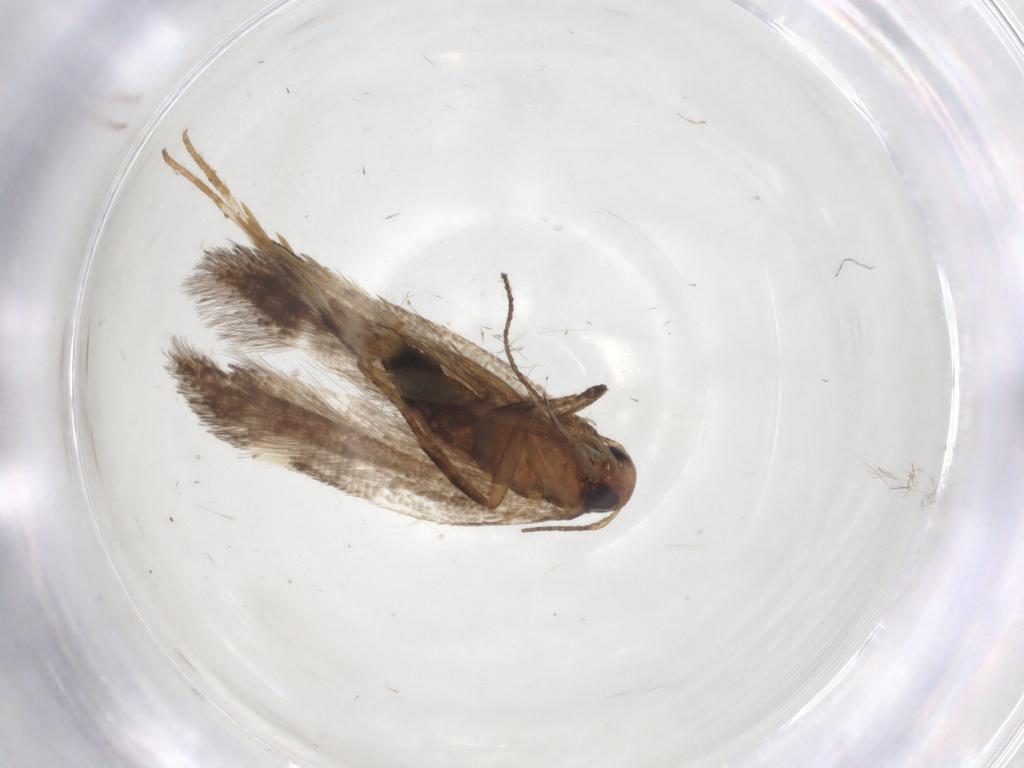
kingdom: Animalia
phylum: Arthropoda
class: Insecta
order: Lepidoptera
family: Gelechiidae
